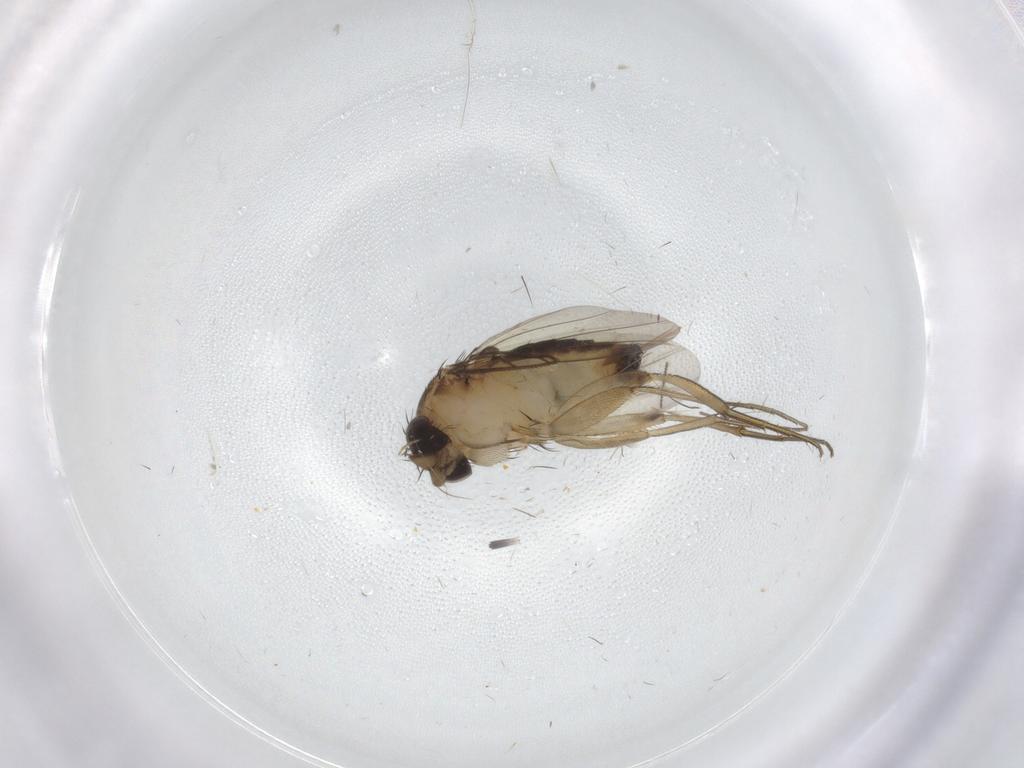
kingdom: Animalia
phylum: Arthropoda
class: Insecta
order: Diptera
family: Phoridae
